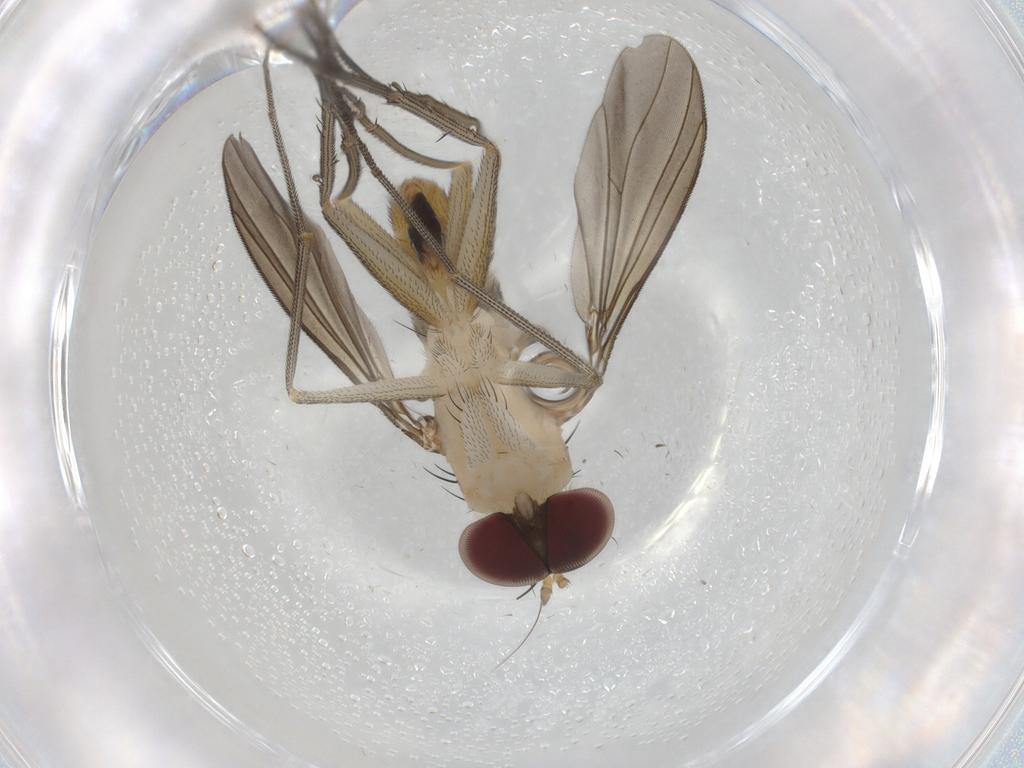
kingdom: Animalia
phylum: Arthropoda
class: Insecta
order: Diptera
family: Dolichopodidae
